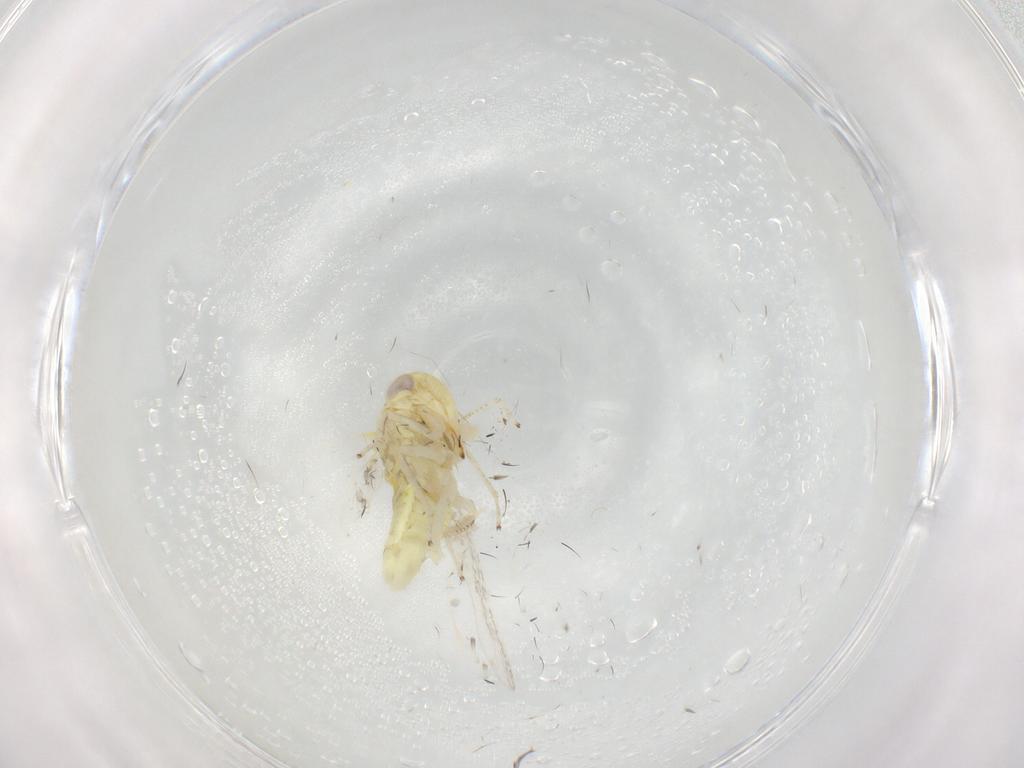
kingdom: Animalia
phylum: Arthropoda
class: Insecta
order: Hemiptera
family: Cicadellidae
